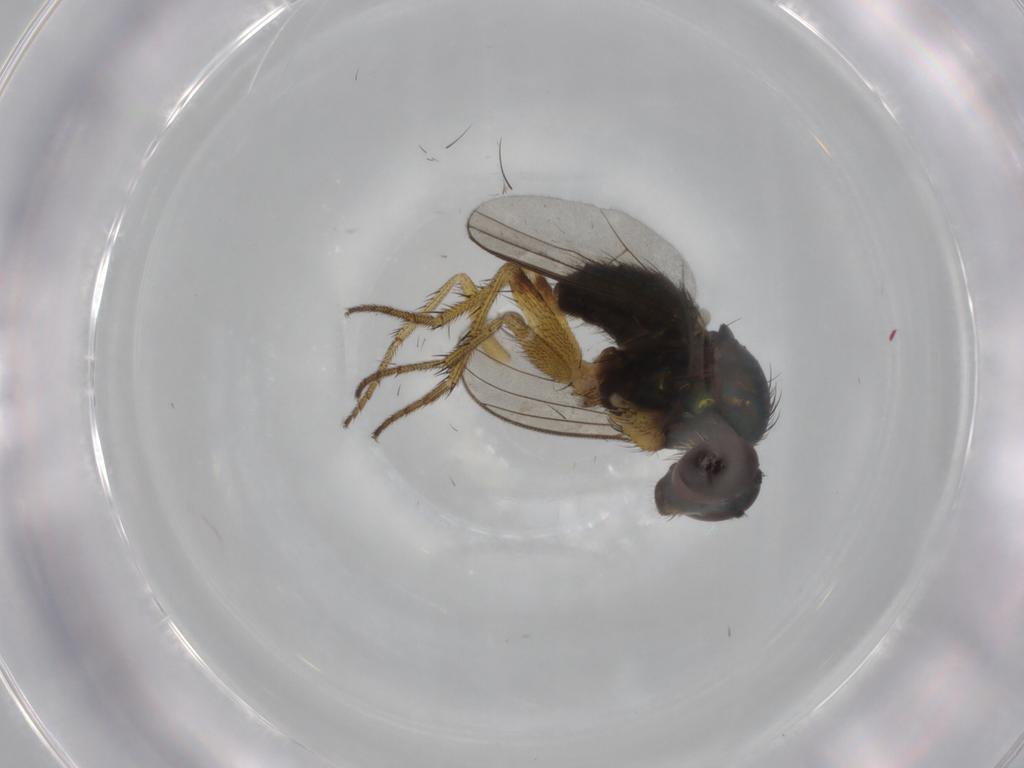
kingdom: Animalia
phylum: Arthropoda
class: Insecta
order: Diptera
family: Dolichopodidae
